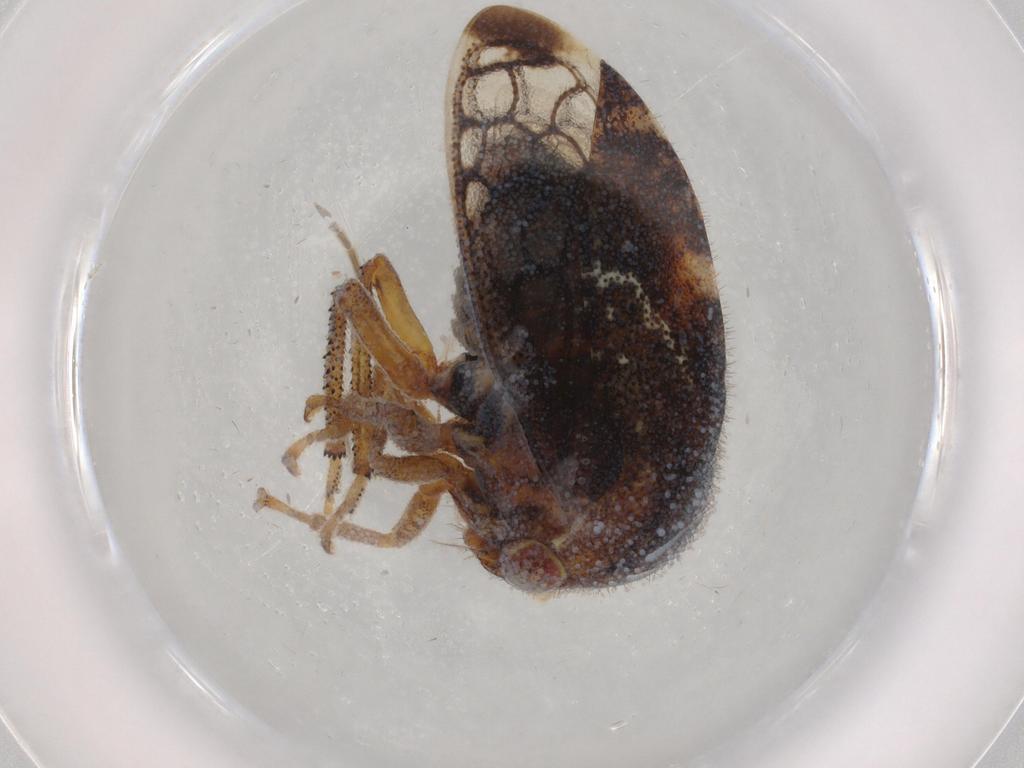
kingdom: Animalia
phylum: Arthropoda
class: Insecta
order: Hemiptera
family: Membracidae
